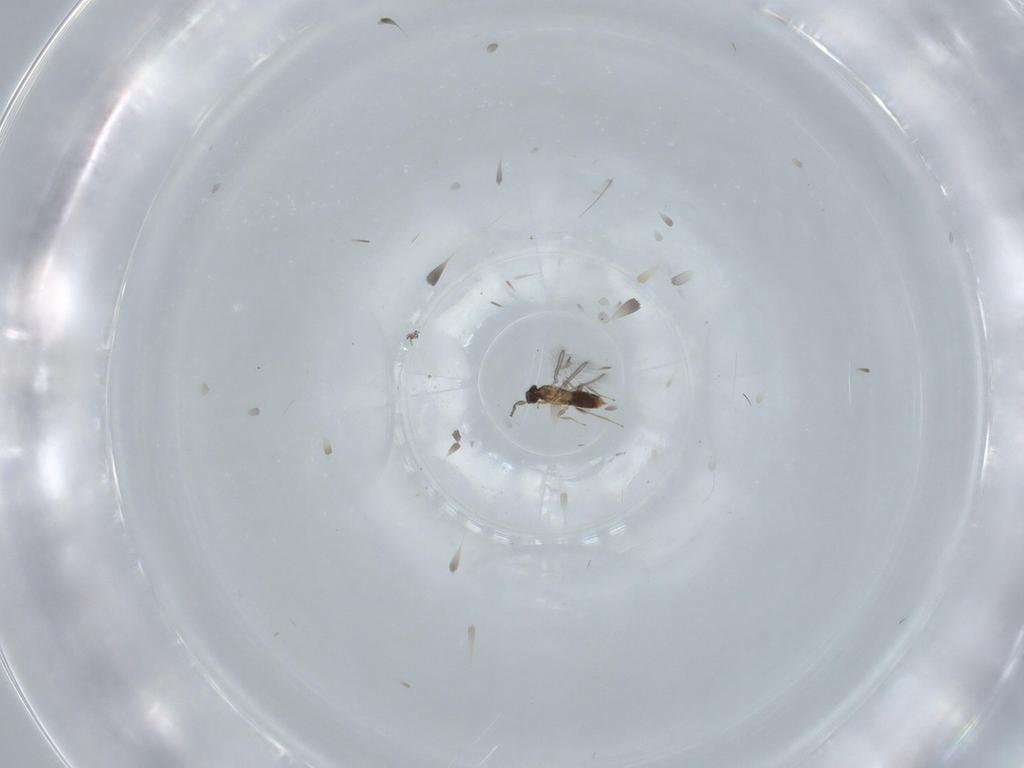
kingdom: Animalia
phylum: Arthropoda
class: Insecta
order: Diptera
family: Xylomyidae
